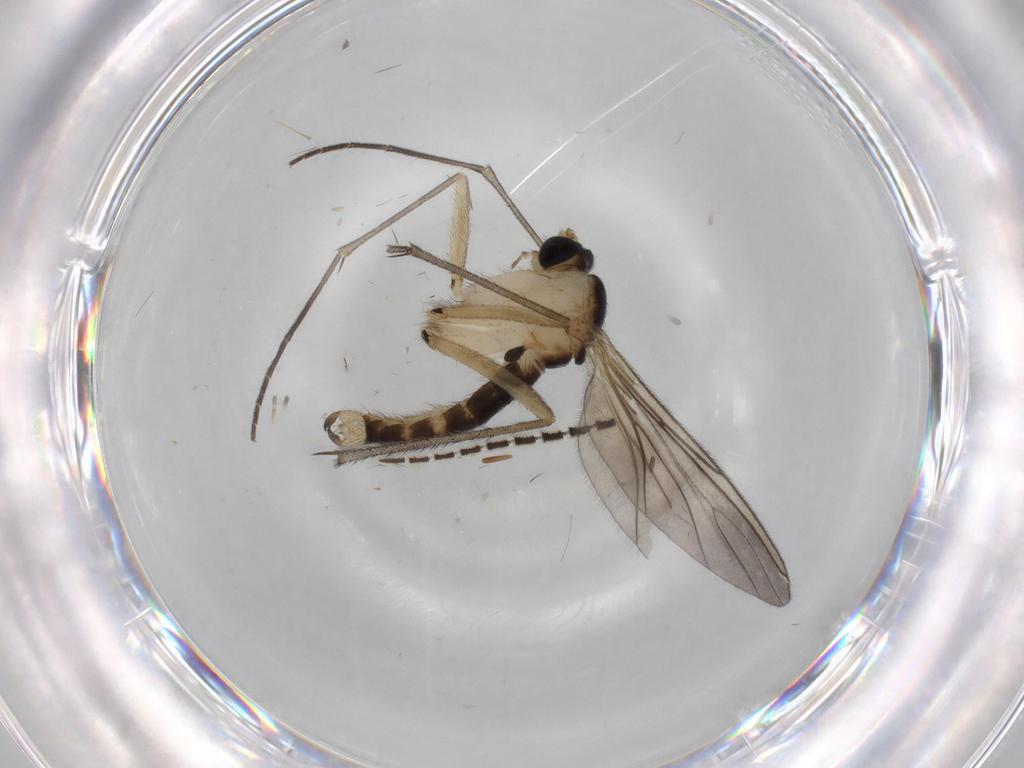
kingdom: Animalia
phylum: Arthropoda
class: Insecta
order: Diptera
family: Sciaridae
